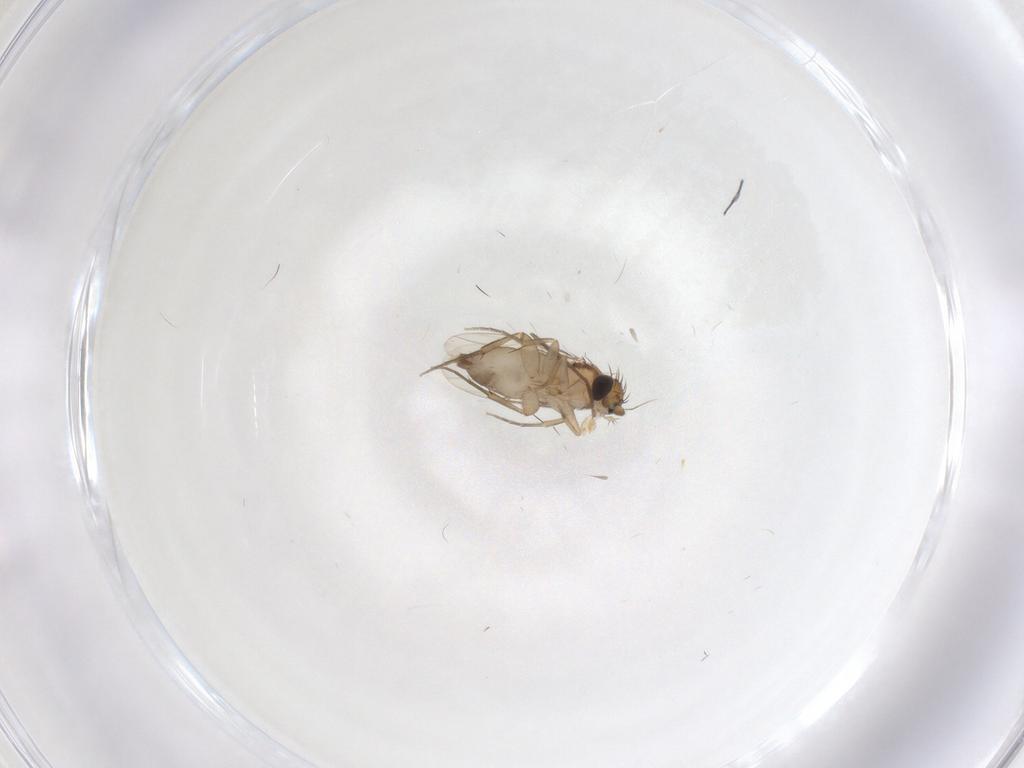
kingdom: Animalia
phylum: Arthropoda
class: Insecta
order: Diptera
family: Phoridae
